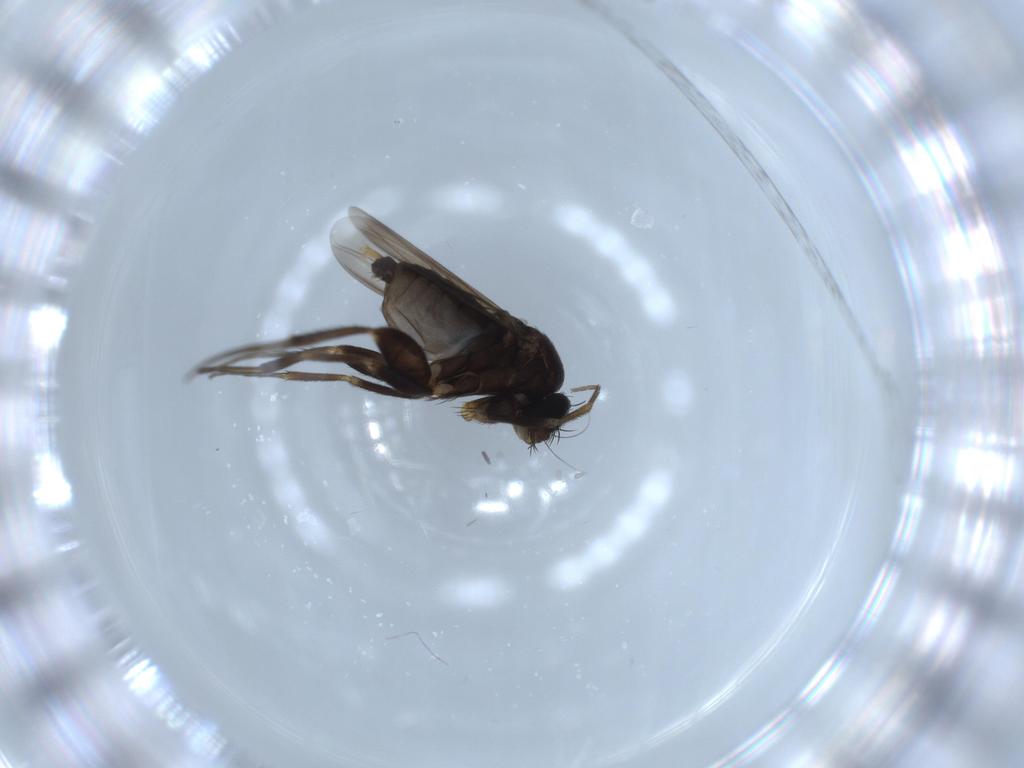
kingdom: Animalia
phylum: Arthropoda
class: Insecta
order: Diptera
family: Phoridae
